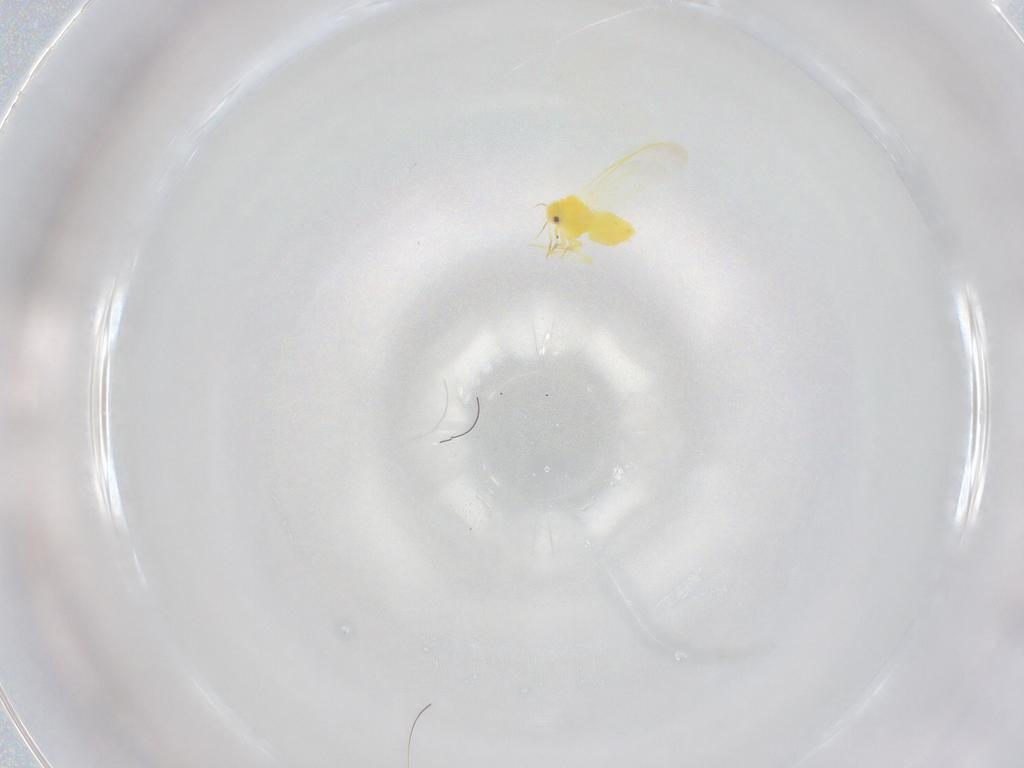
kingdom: Animalia
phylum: Arthropoda
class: Insecta
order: Hemiptera
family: Aleyrodidae
